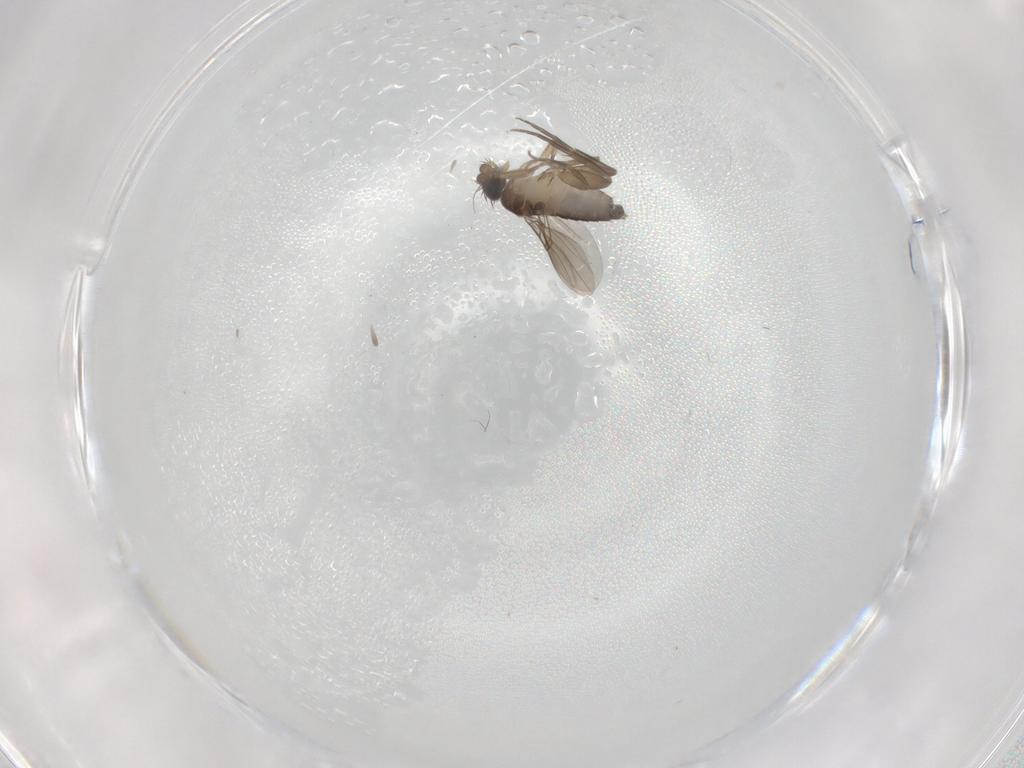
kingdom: Animalia
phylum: Arthropoda
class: Insecta
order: Diptera
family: Phoridae
